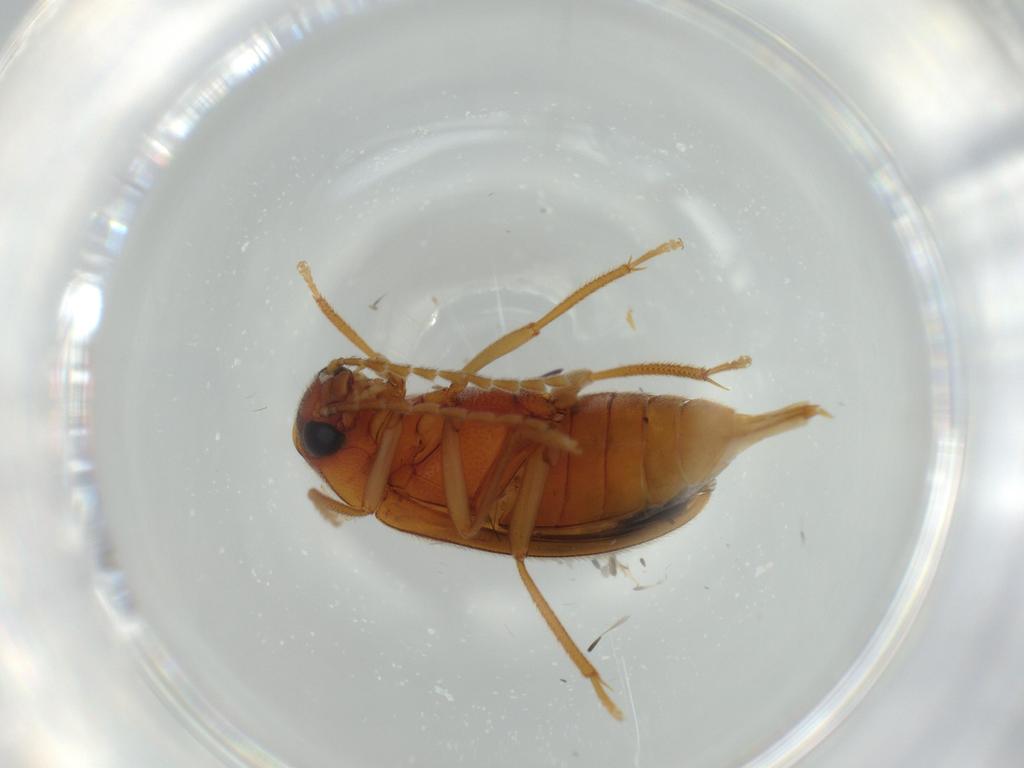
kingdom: Animalia
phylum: Arthropoda
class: Insecta
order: Coleoptera
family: Ptilodactylidae
